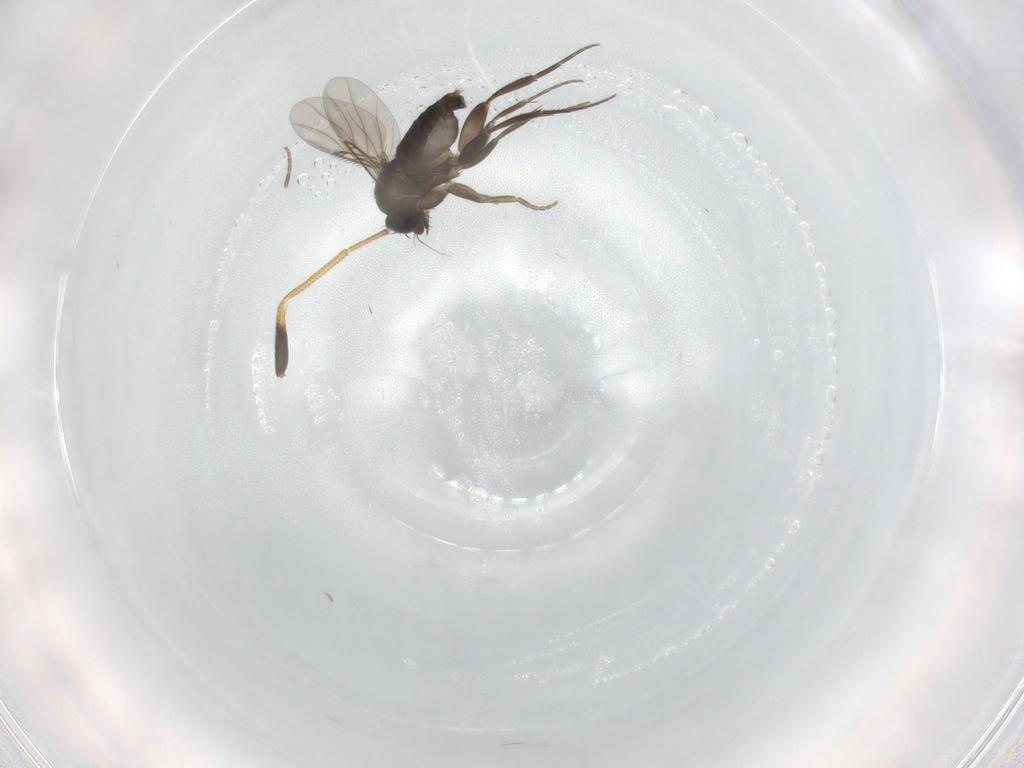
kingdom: Animalia
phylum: Arthropoda
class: Insecta
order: Diptera
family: Dolichopodidae
